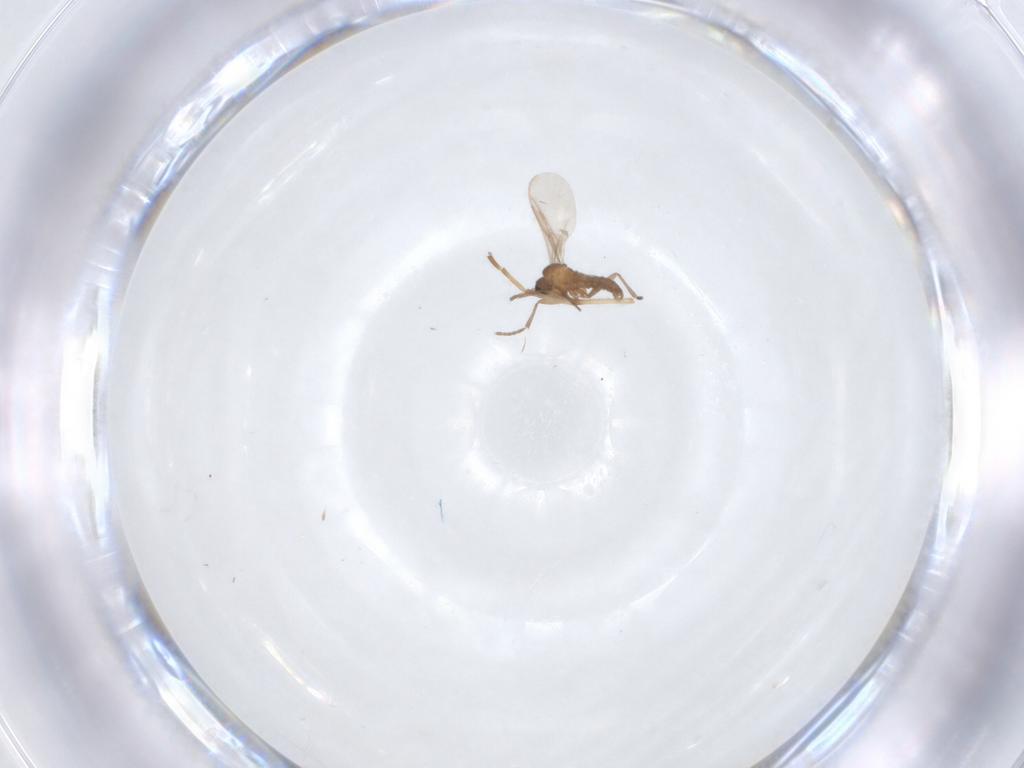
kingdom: Animalia
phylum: Arthropoda
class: Insecta
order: Diptera
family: Chironomidae
